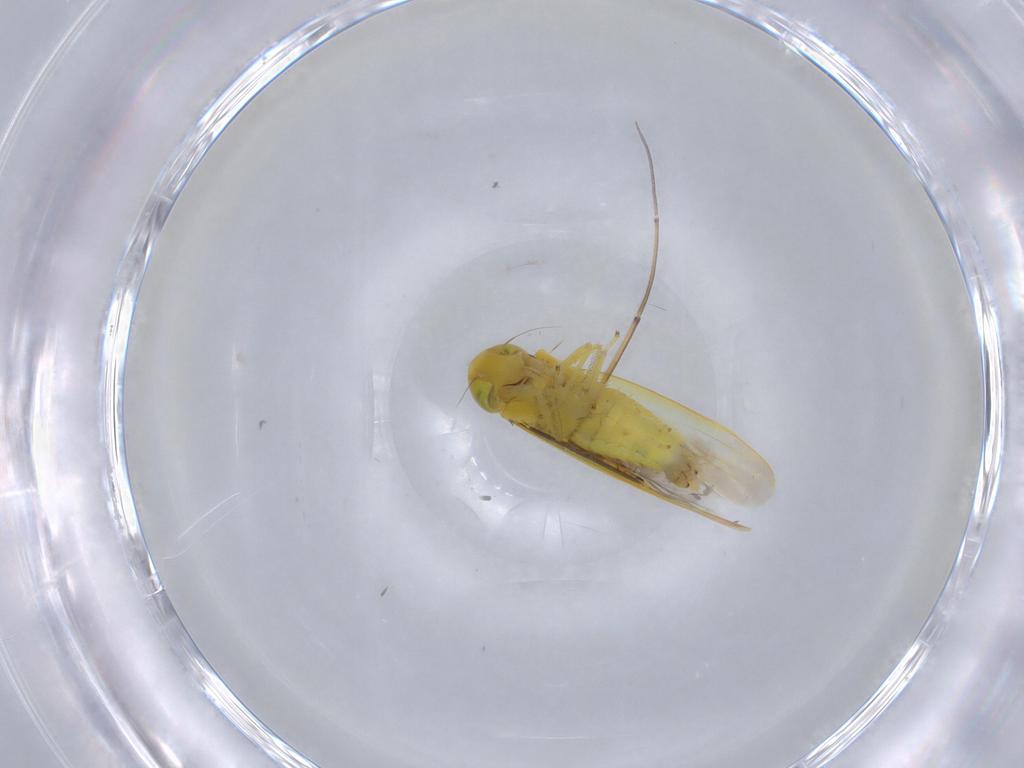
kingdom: Animalia
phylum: Arthropoda
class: Insecta
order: Hemiptera
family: Cicadellidae
